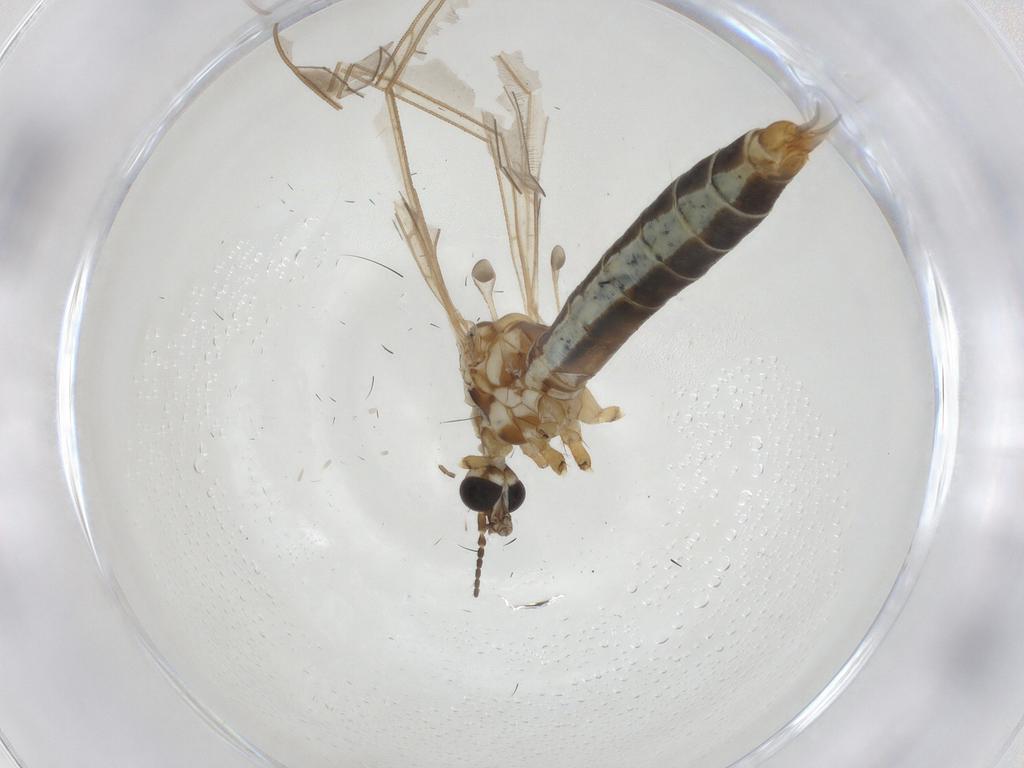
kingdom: Animalia
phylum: Arthropoda
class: Insecta
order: Diptera
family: Limoniidae
